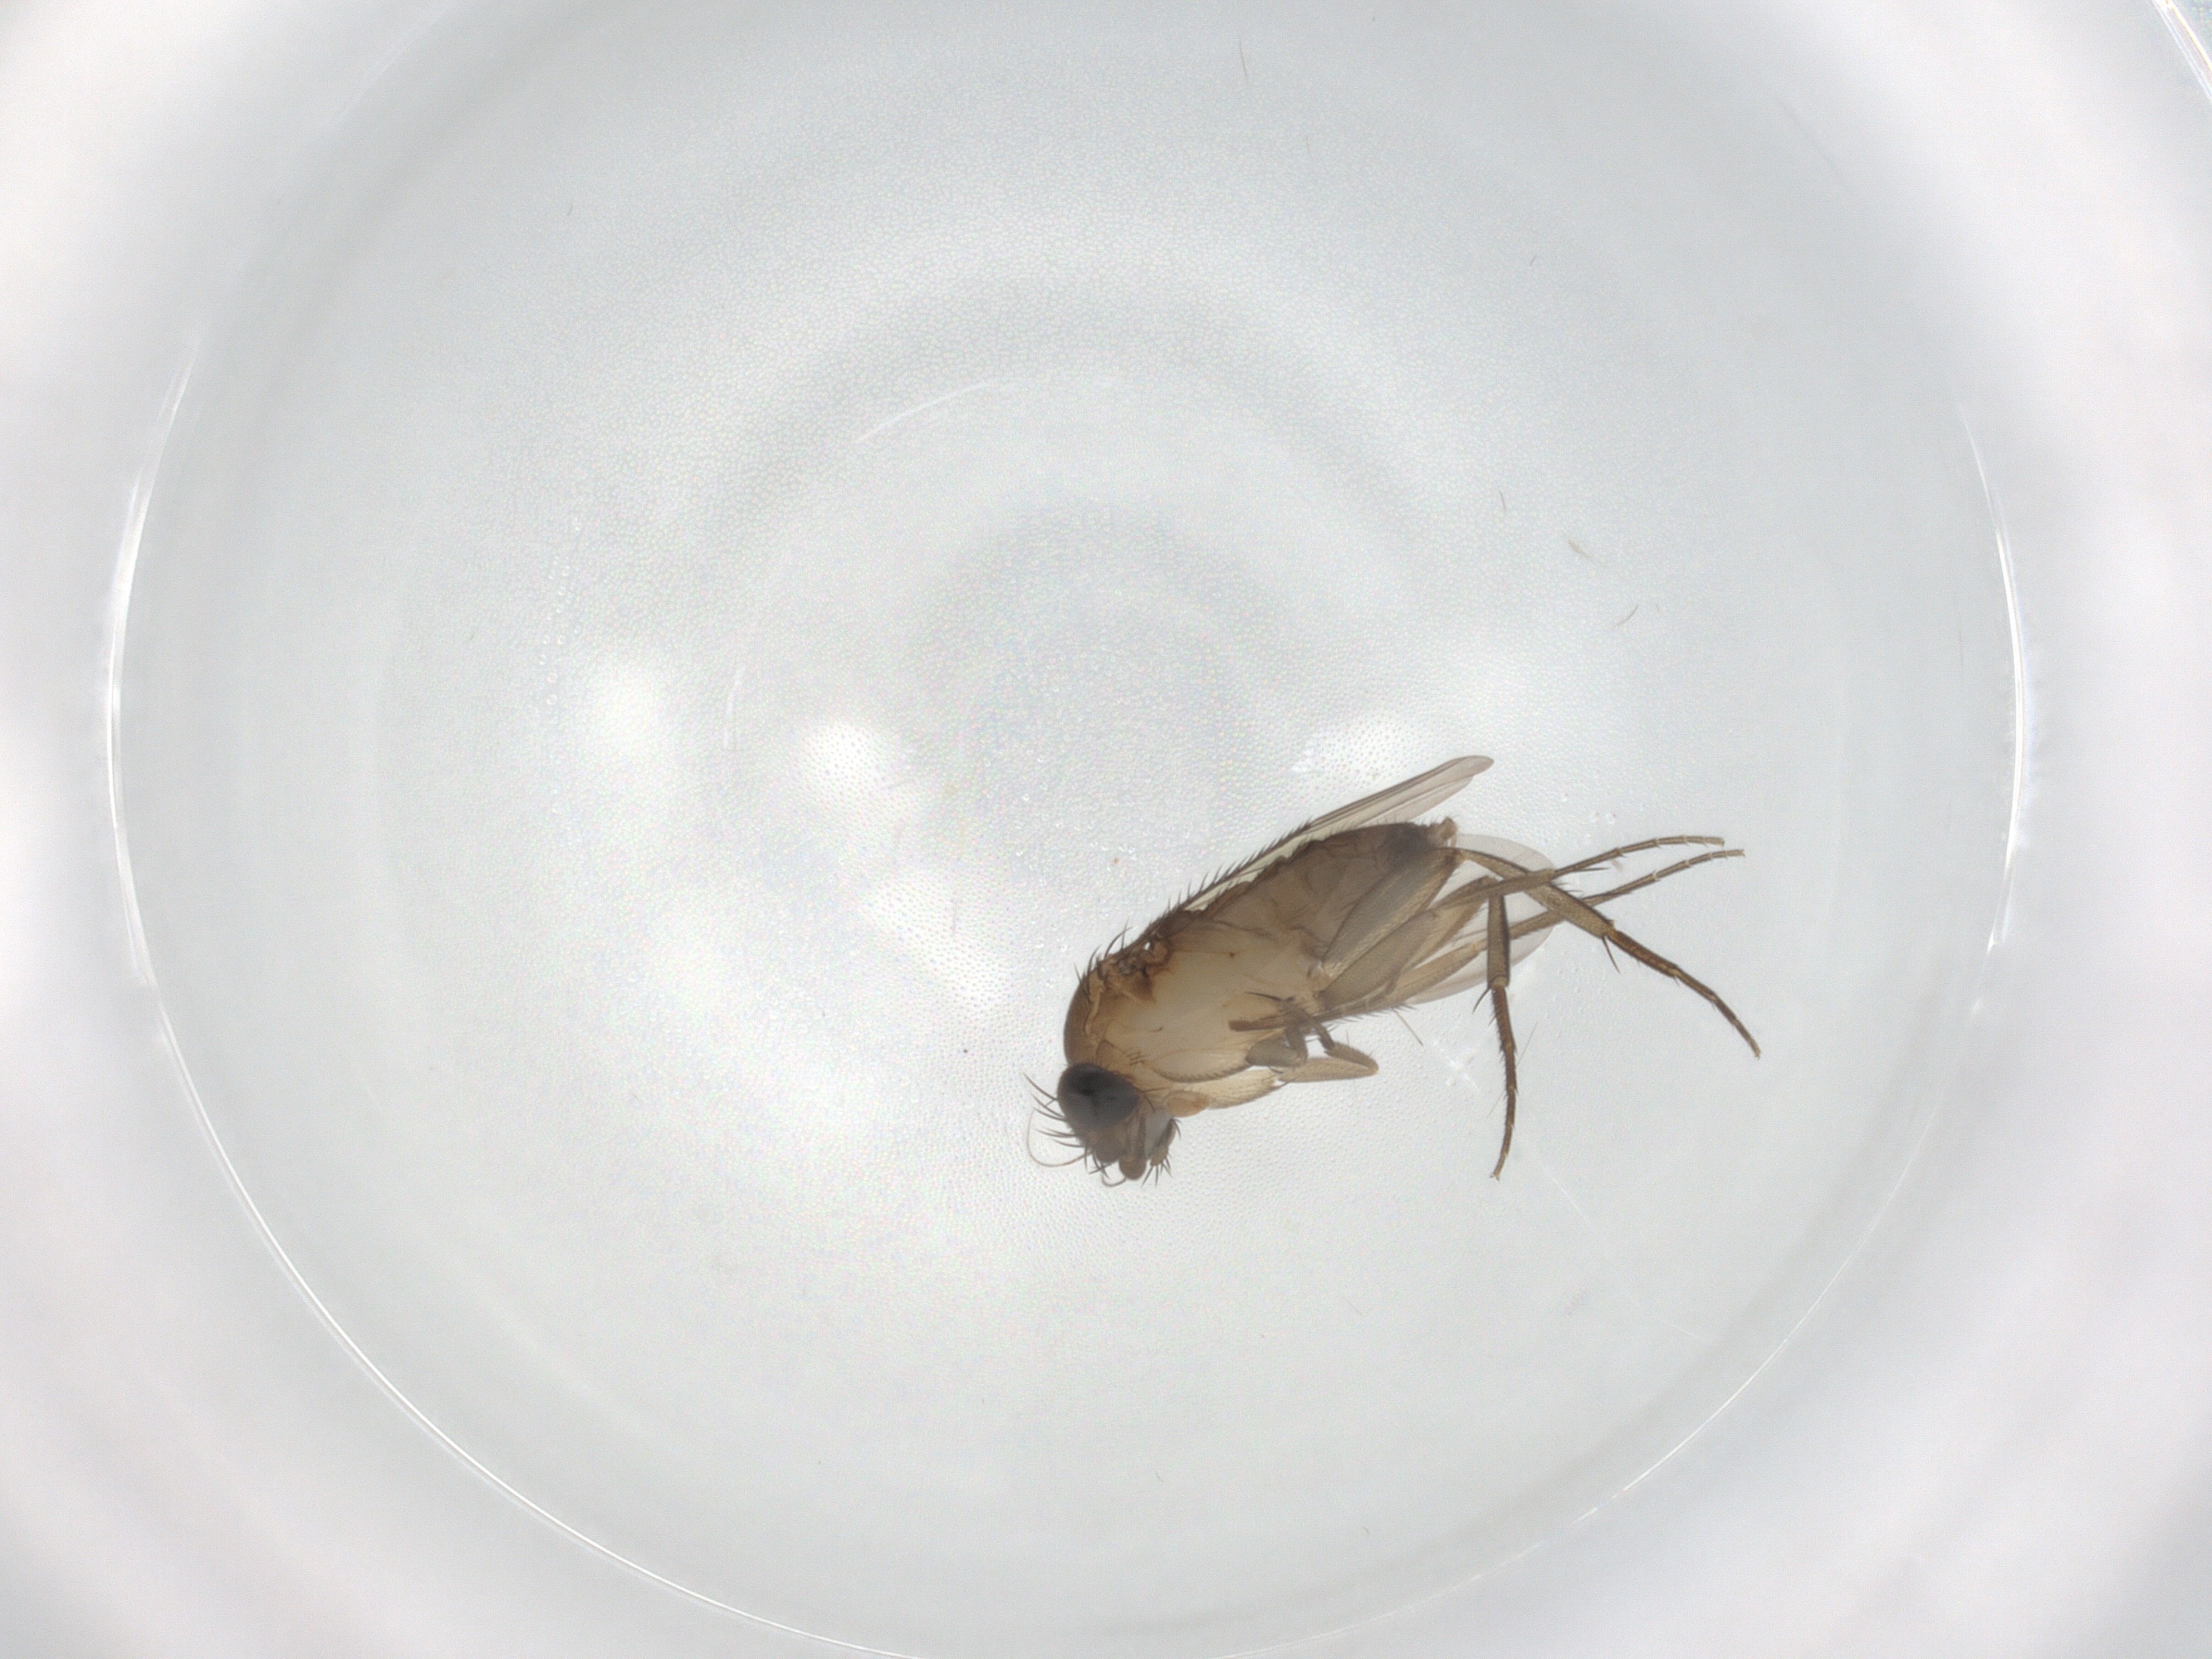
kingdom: Animalia
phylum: Arthropoda
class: Insecta
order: Diptera
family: Phoridae
